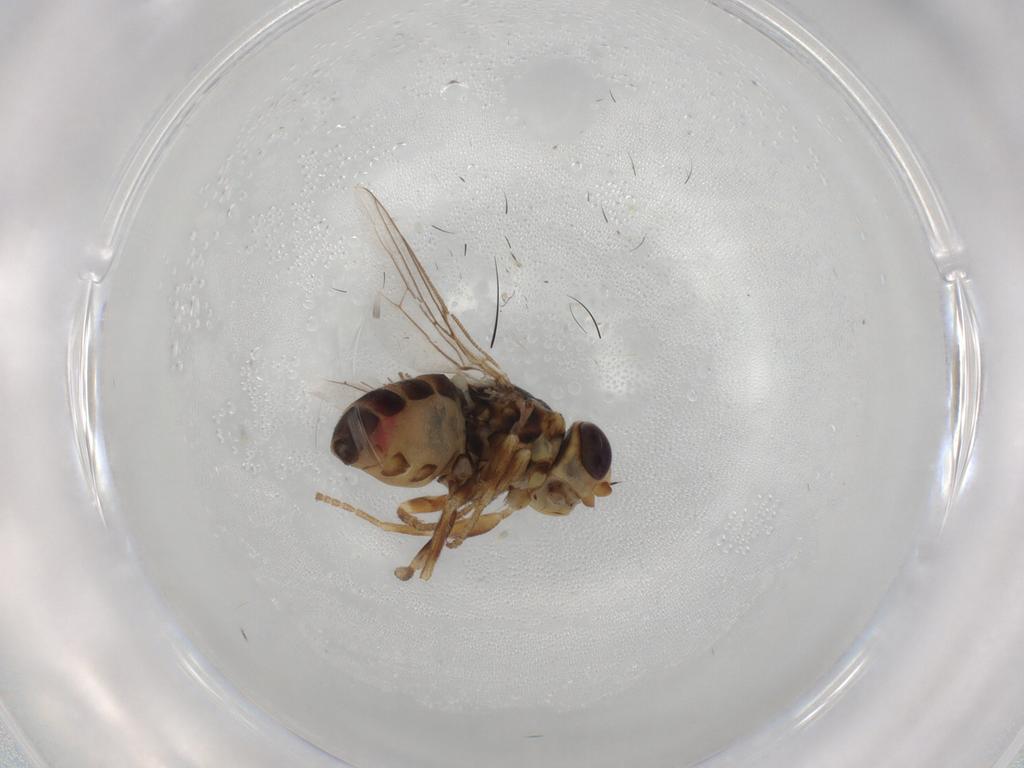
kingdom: Animalia
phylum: Arthropoda
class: Insecta
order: Diptera
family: Chloropidae
